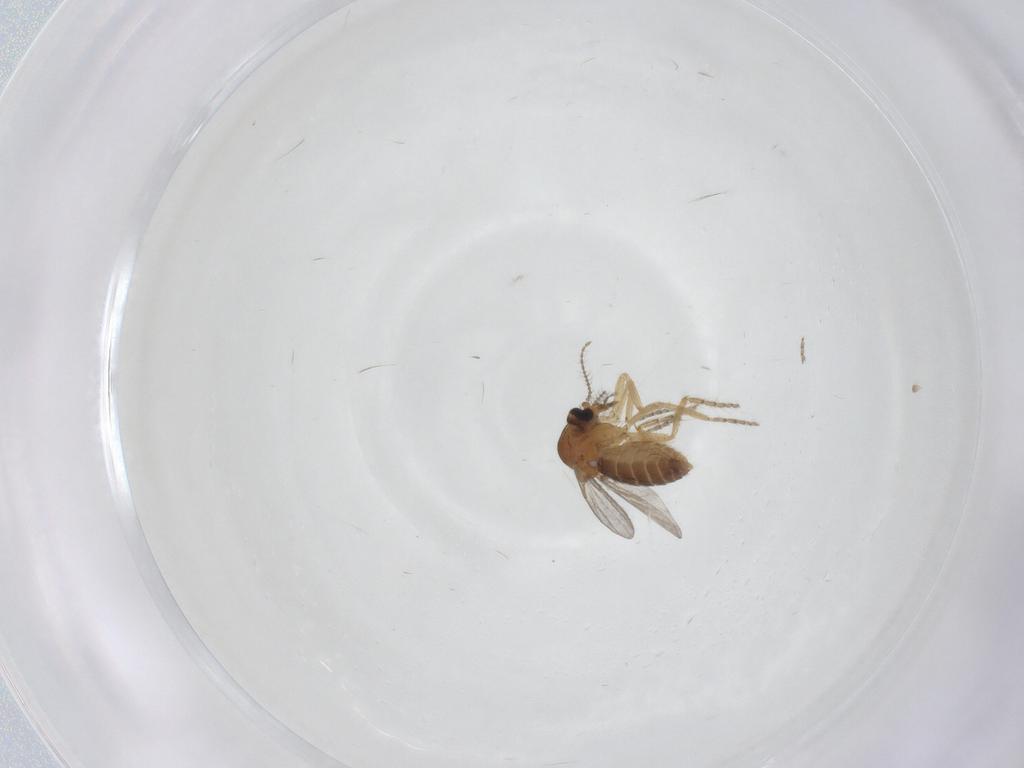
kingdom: Animalia
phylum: Arthropoda
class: Insecta
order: Diptera
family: Ceratopogonidae
